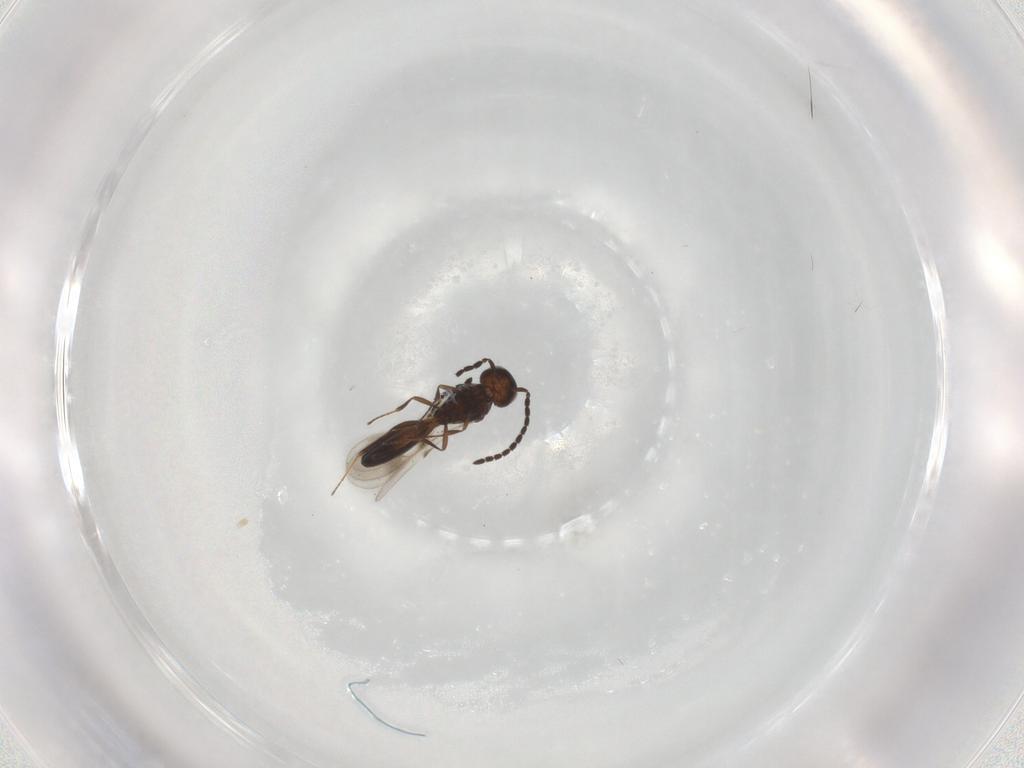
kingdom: Animalia
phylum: Arthropoda
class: Insecta
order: Hymenoptera
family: Scelionidae
